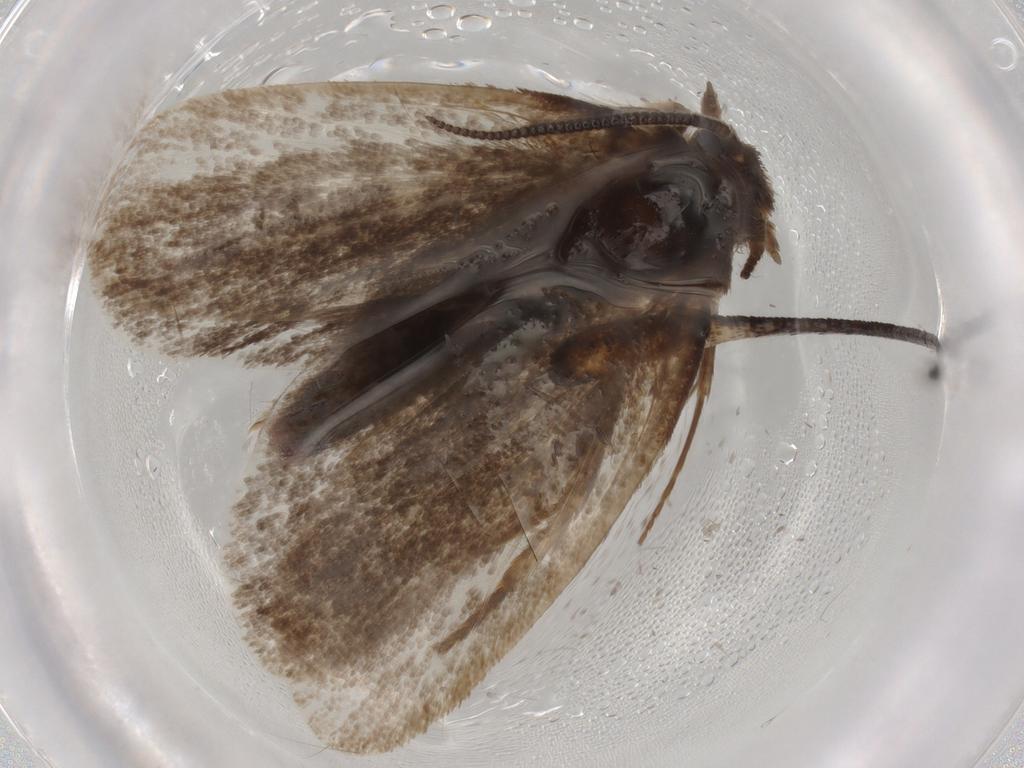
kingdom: Animalia
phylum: Arthropoda
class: Insecta
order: Lepidoptera
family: Tineidae
